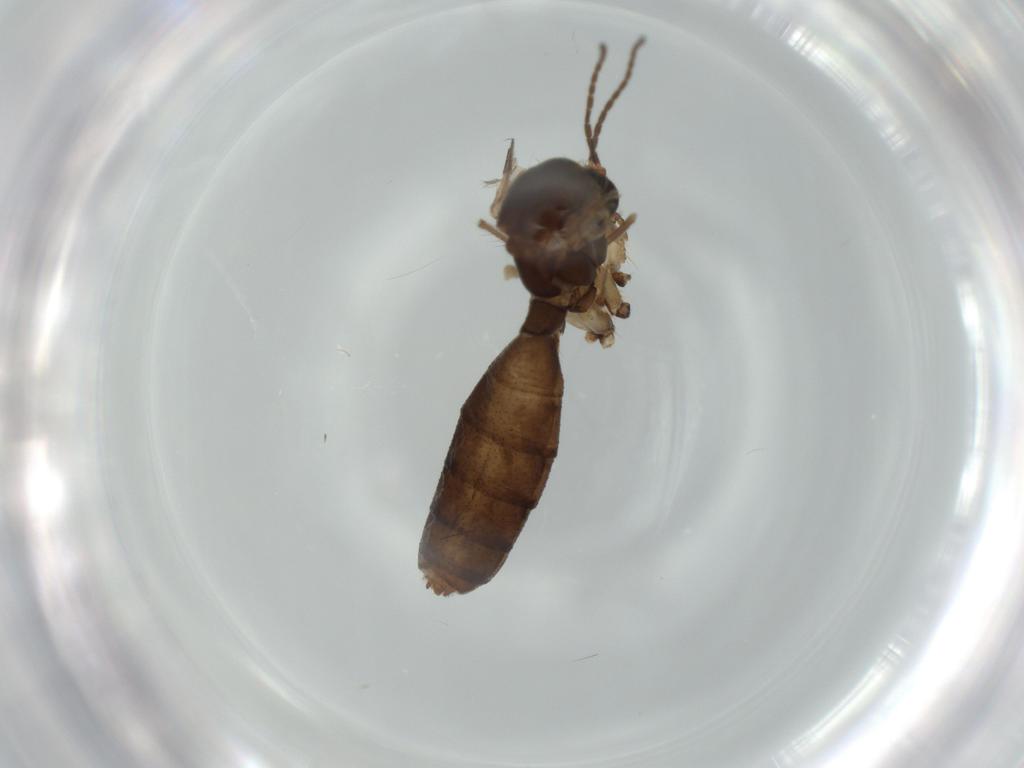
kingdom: Animalia
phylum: Arthropoda
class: Insecta
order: Diptera
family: Mycetophilidae
